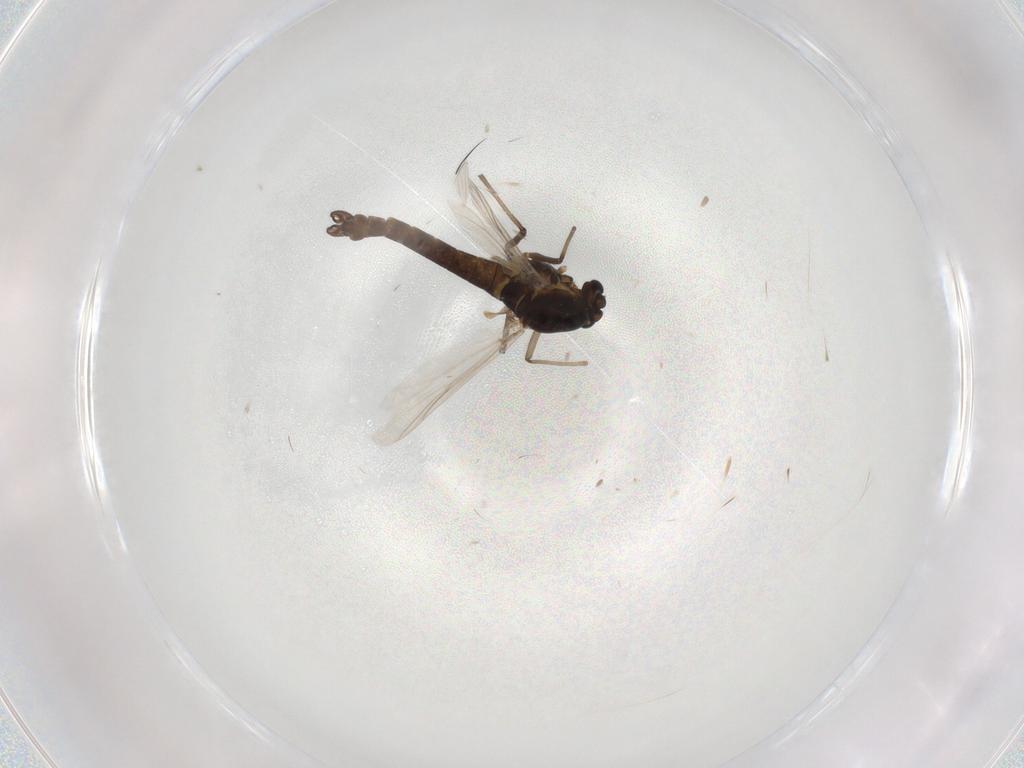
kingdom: Animalia
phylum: Arthropoda
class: Insecta
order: Diptera
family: Chironomidae
